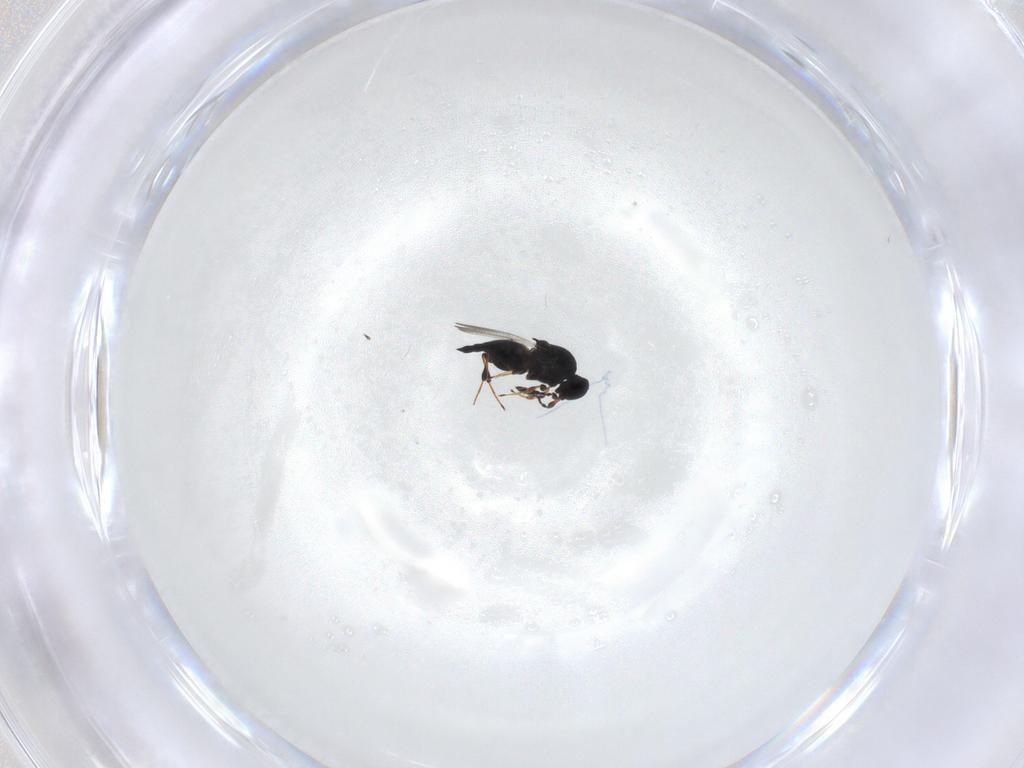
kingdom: Animalia
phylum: Arthropoda
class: Insecta
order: Hymenoptera
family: Platygastridae
